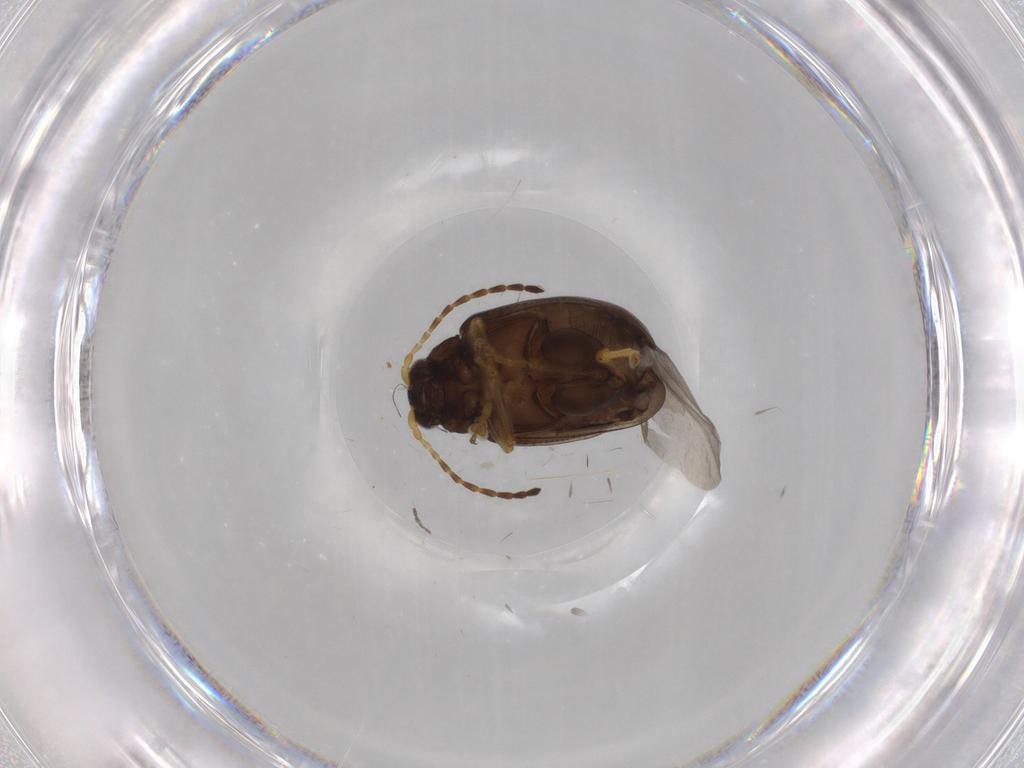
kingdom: Animalia
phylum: Arthropoda
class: Insecta
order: Coleoptera
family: Chrysomelidae
